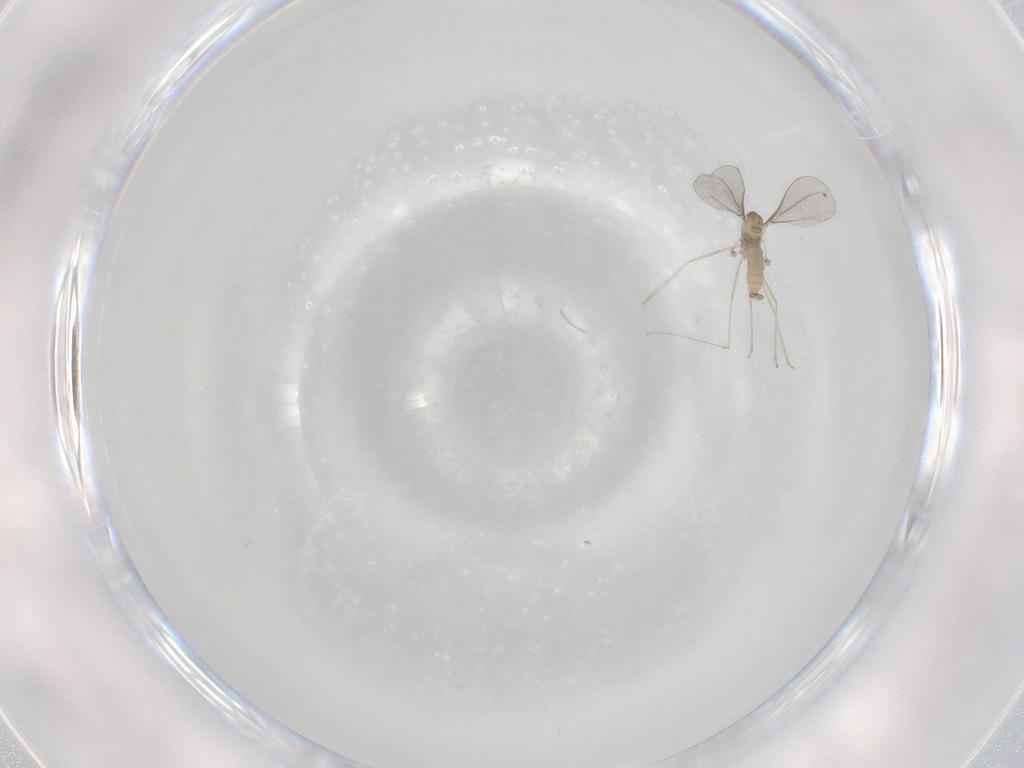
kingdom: Animalia
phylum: Arthropoda
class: Insecta
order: Diptera
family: Cecidomyiidae
